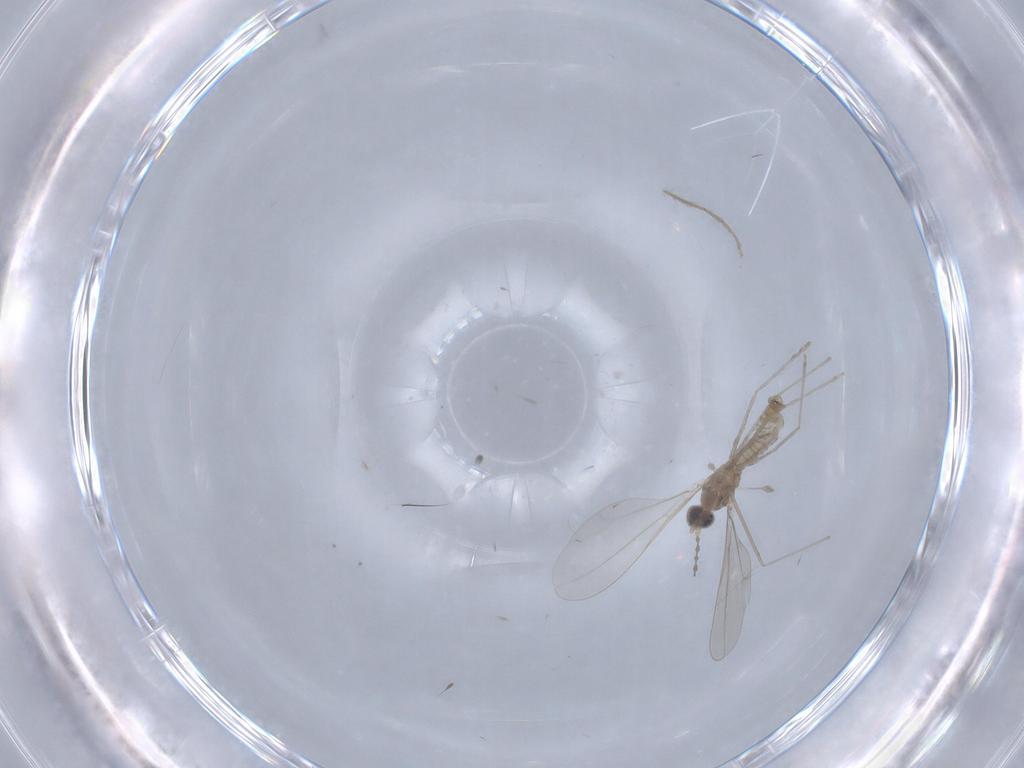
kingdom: Animalia
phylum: Arthropoda
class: Insecta
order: Diptera
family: Cecidomyiidae
